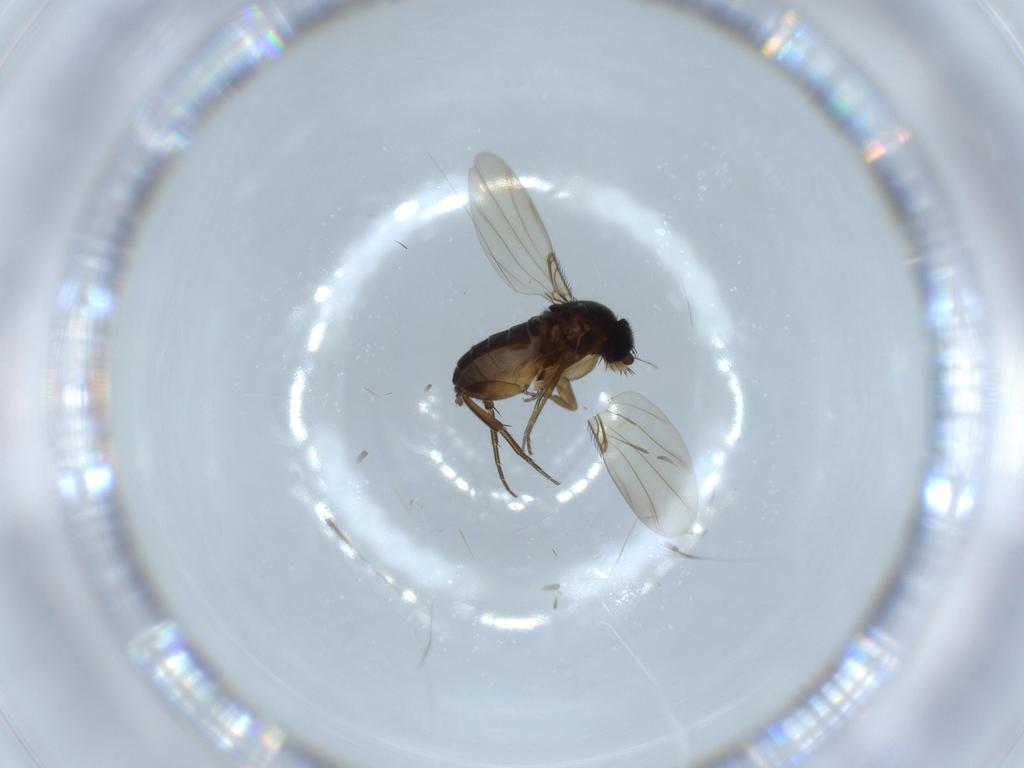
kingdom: Animalia
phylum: Arthropoda
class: Insecta
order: Diptera
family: Phoridae
